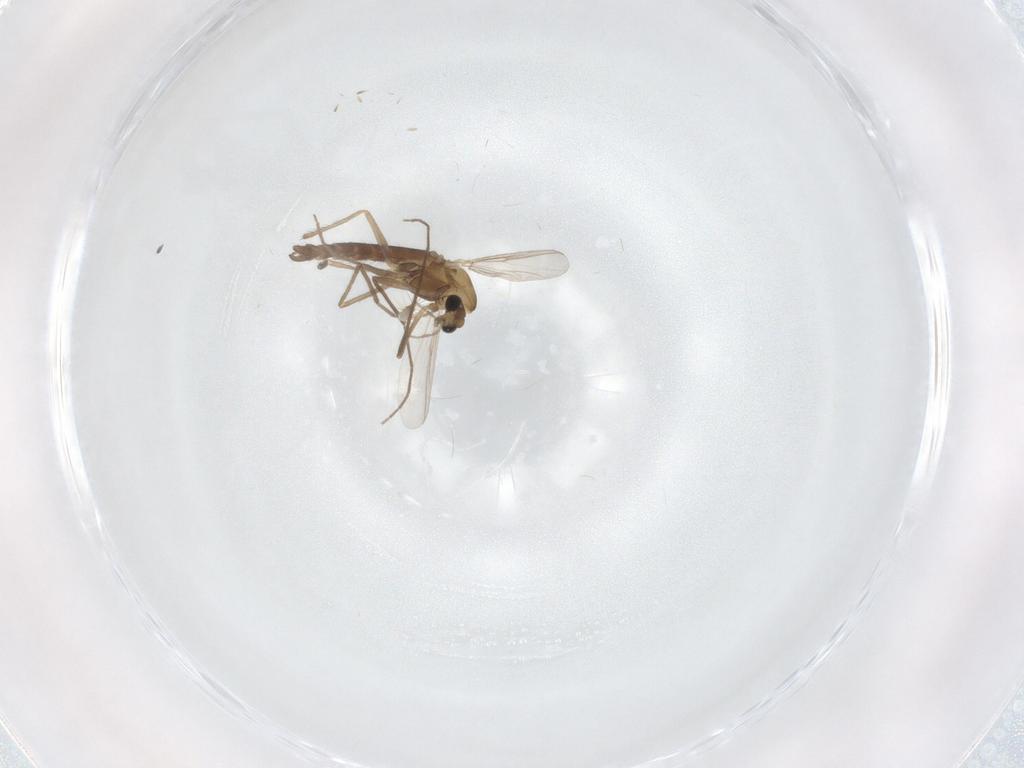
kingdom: Animalia
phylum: Arthropoda
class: Insecta
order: Diptera
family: Chironomidae
